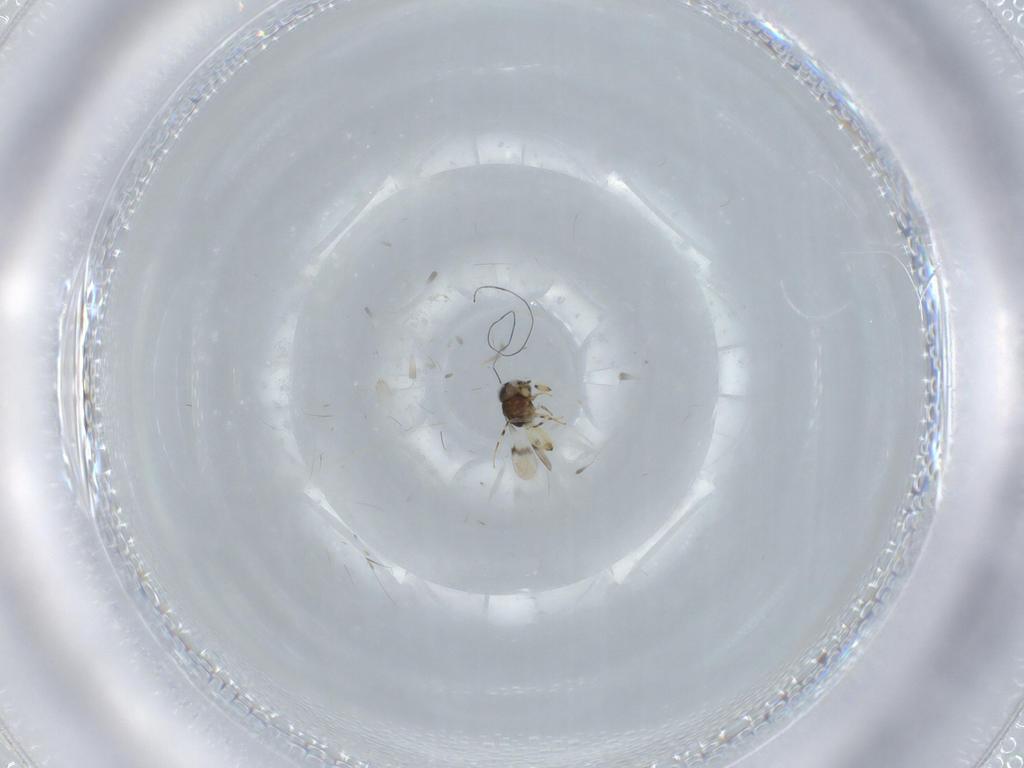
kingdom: Animalia
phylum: Arthropoda
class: Insecta
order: Hymenoptera
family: Scelionidae
